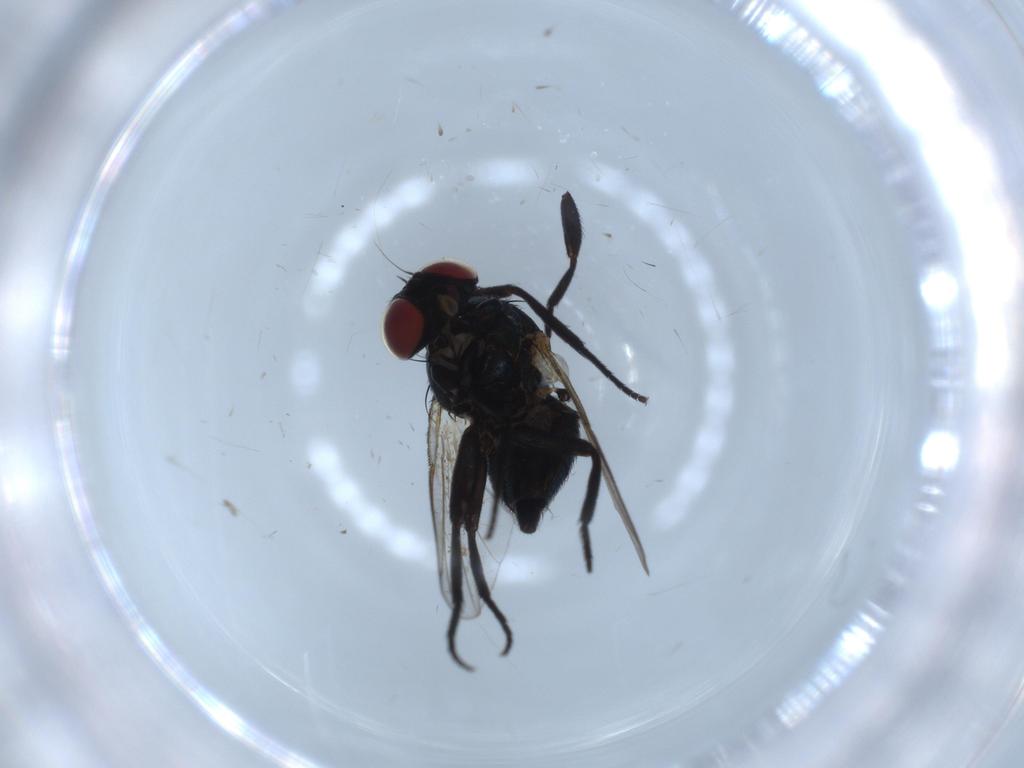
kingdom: Animalia
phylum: Arthropoda
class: Insecta
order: Diptera
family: Agromyzidae
